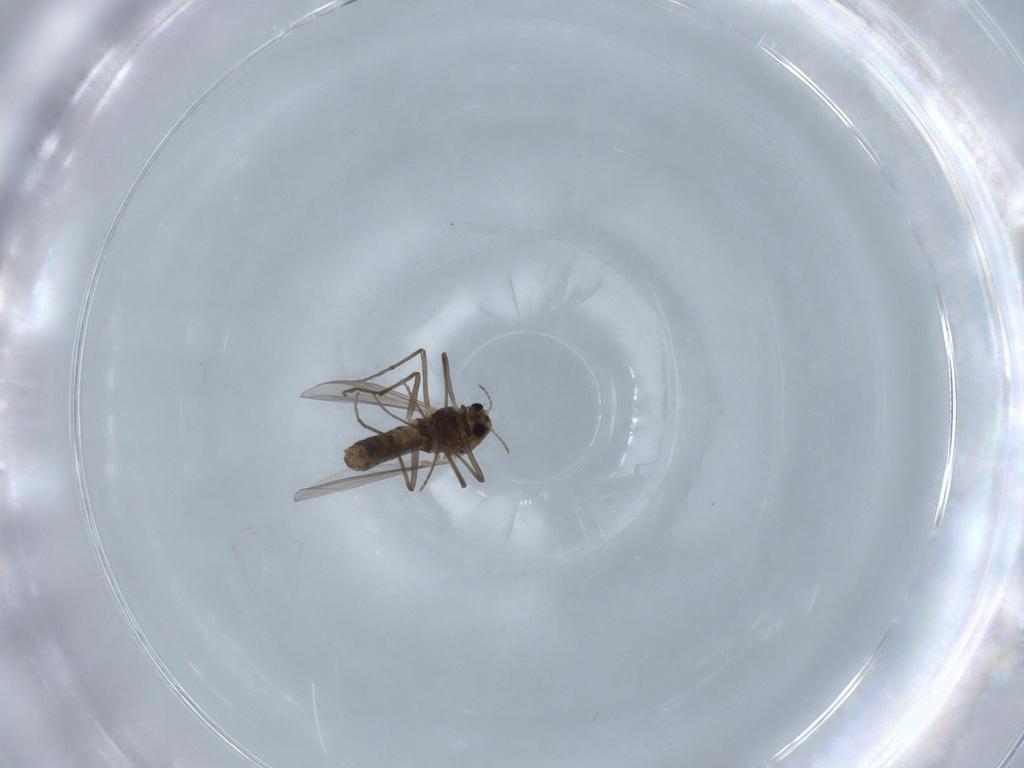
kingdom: Animalia
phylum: Arthropoda
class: Insecta
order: Diptera
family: Chironomidae
